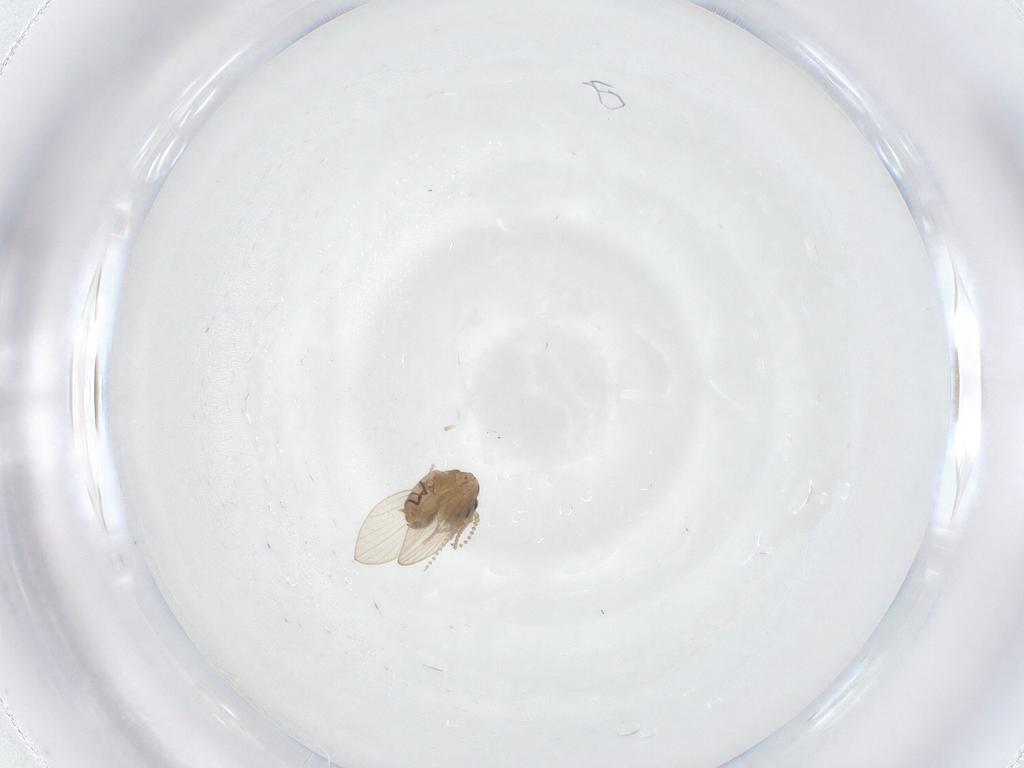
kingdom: Animalia
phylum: Arthropoda
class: Insecta
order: Diptera
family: Psychodidae
